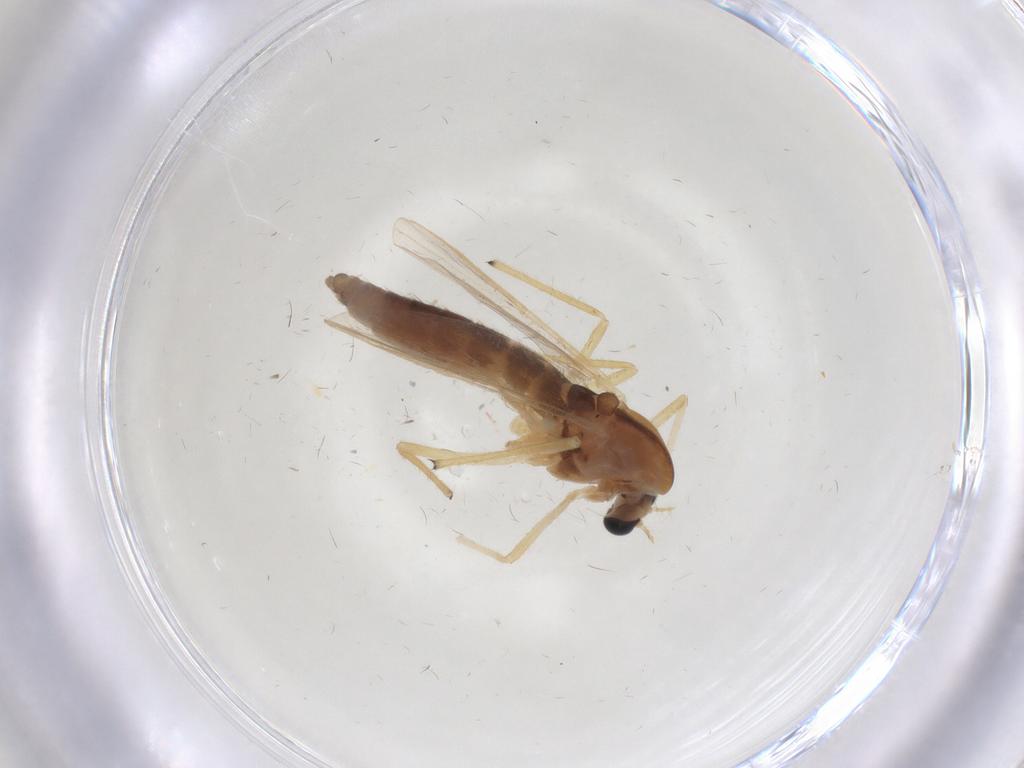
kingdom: Animalia
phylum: Arthropoda
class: Insecta
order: Diptera
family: Chironomidae
